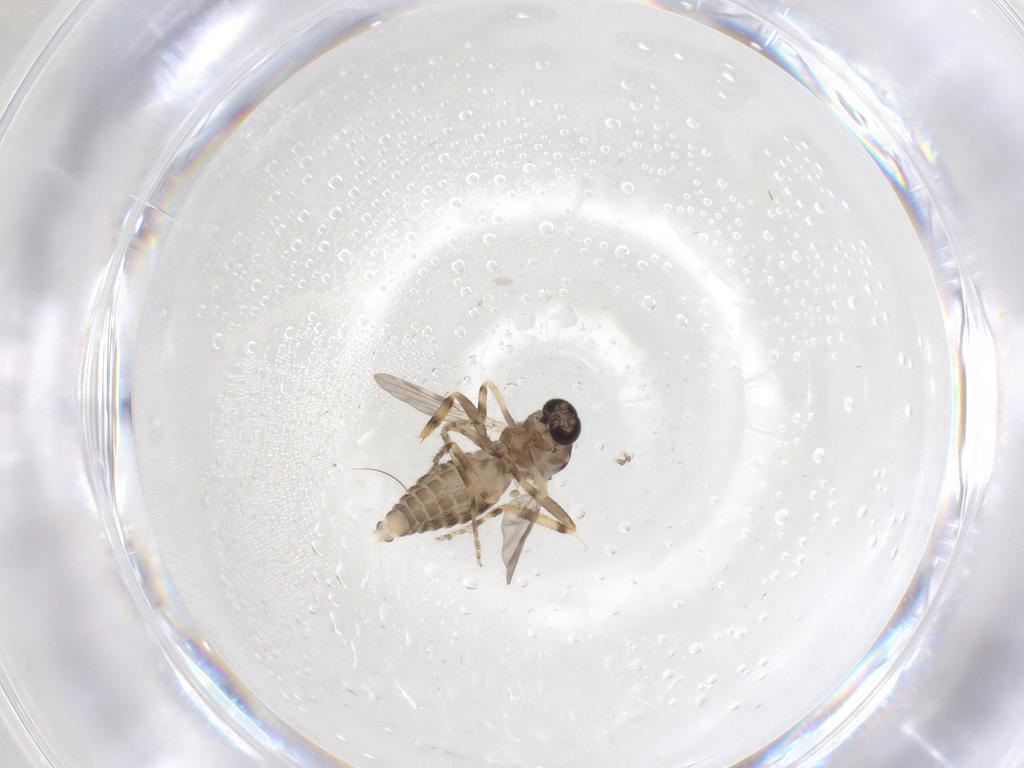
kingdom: Animalia
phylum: Arthropoda
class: Insecta
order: Diptera
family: Ceratopogonidae
